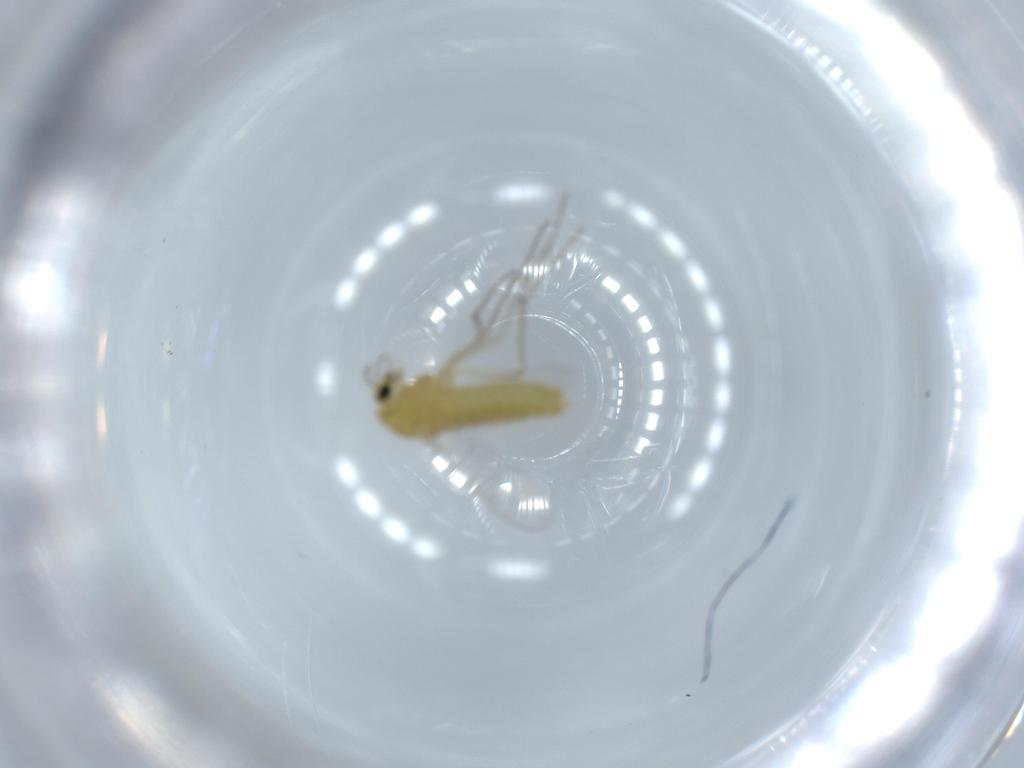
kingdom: Animalia
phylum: Arthropoda
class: Insecta
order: Diptera
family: Chironomidae
